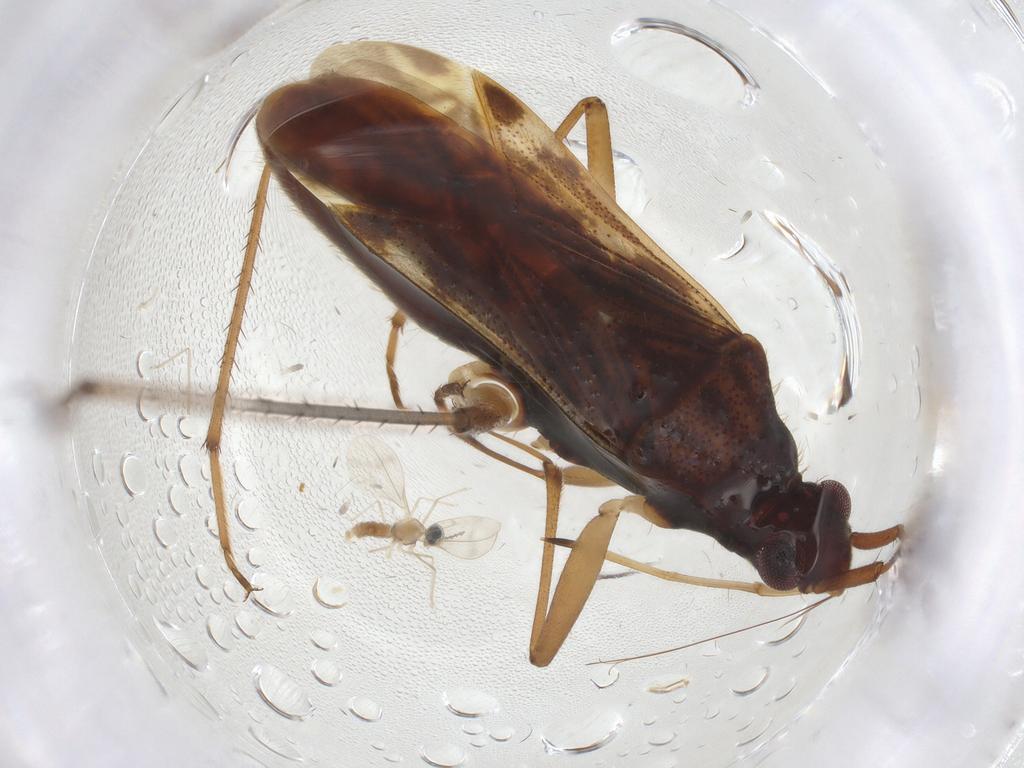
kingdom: Animalia
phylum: Arthropoda
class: Insecta
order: Hemiptera
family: Rhyparochromidae
